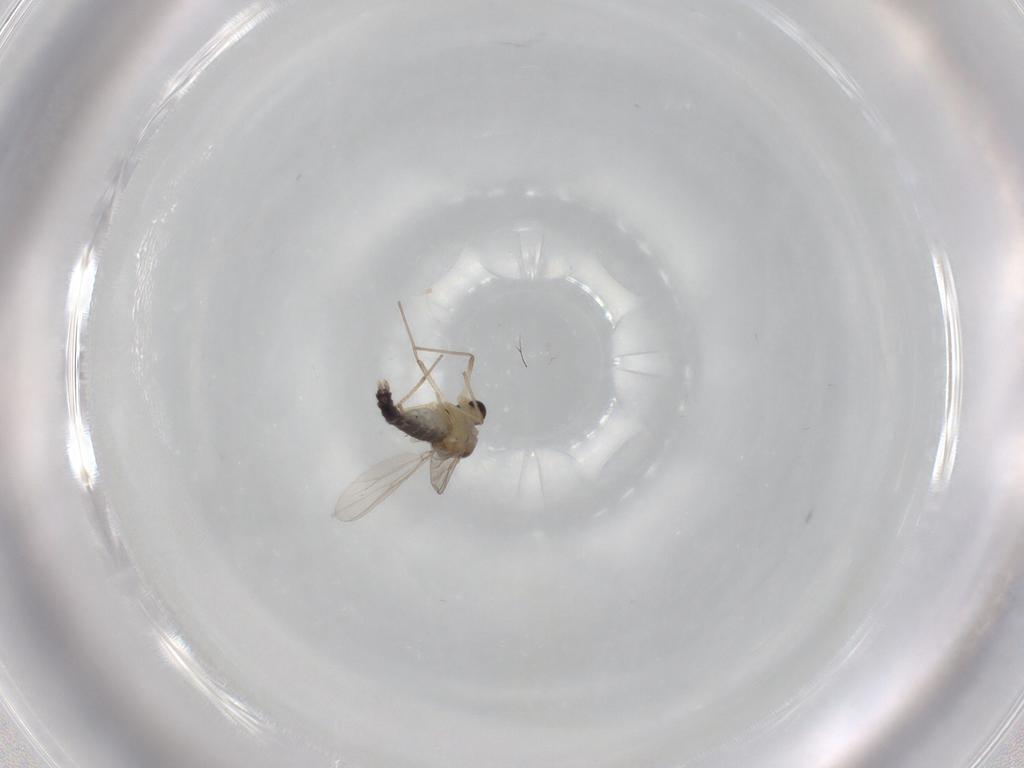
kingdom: Animalia
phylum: Arthropoda
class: Insecta
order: Diptera
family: Chironomidae
